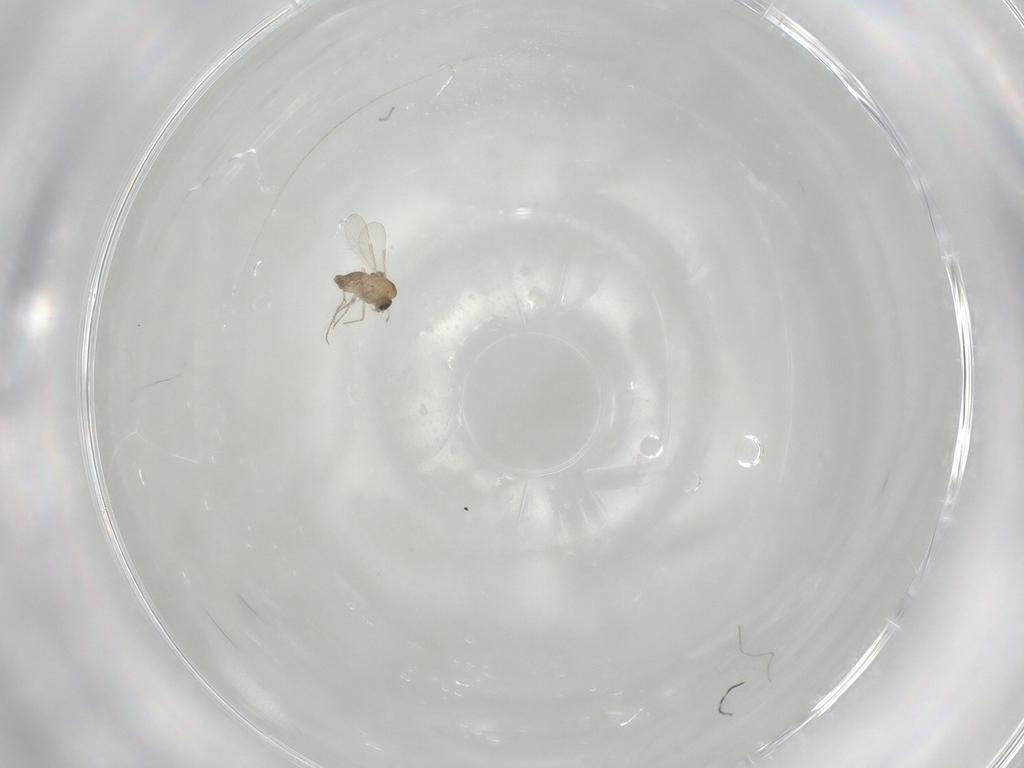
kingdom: Animalia
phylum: Arthropoda
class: Insecta
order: Diptera
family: Chironomidae
